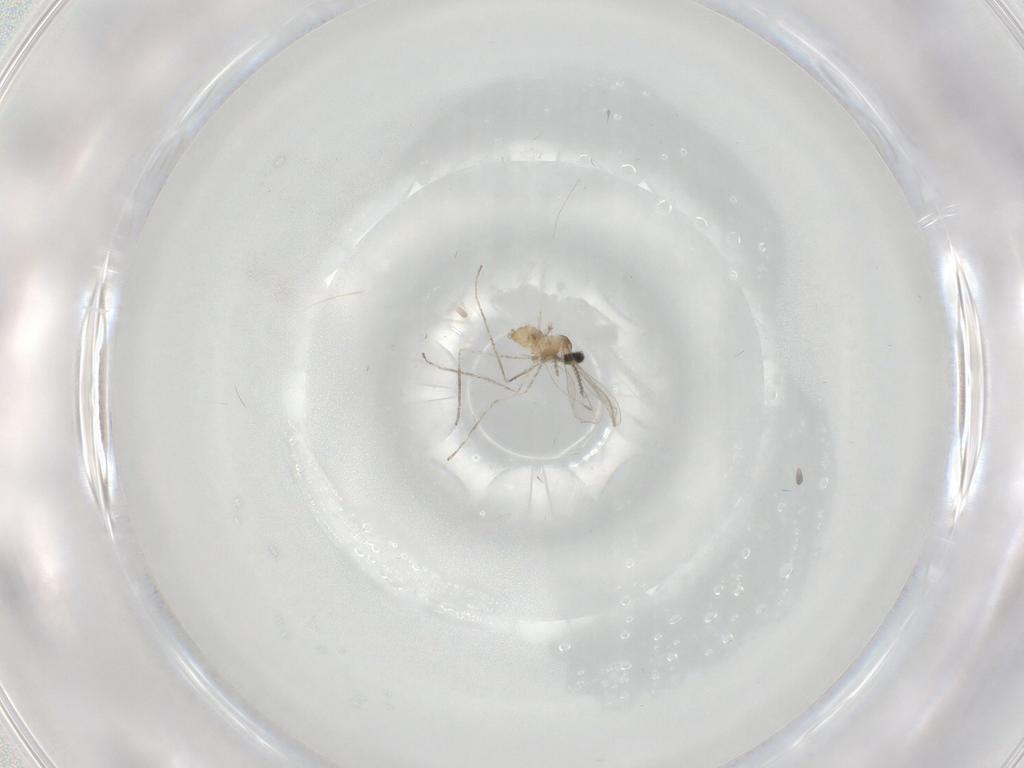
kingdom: Animalia
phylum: Arthropoda
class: Insecta
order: Diptera
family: Cecidomyiidae
